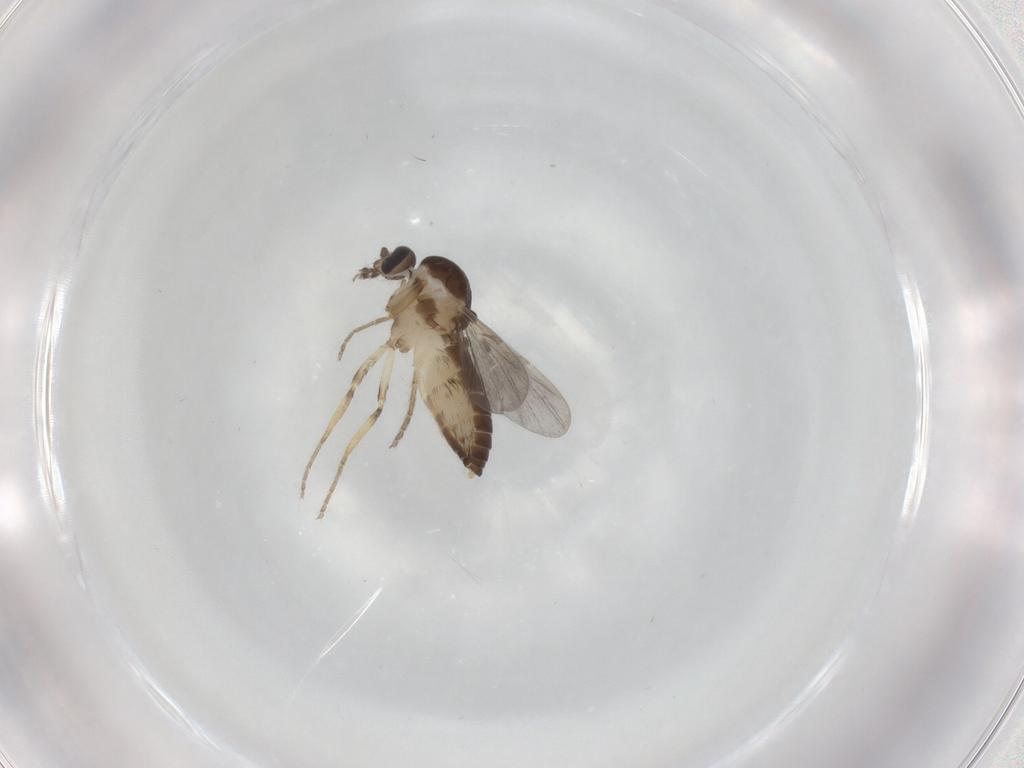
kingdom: Animalia
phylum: Arthropoda
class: Insecta
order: Diptera
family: Ceratopogonidae
